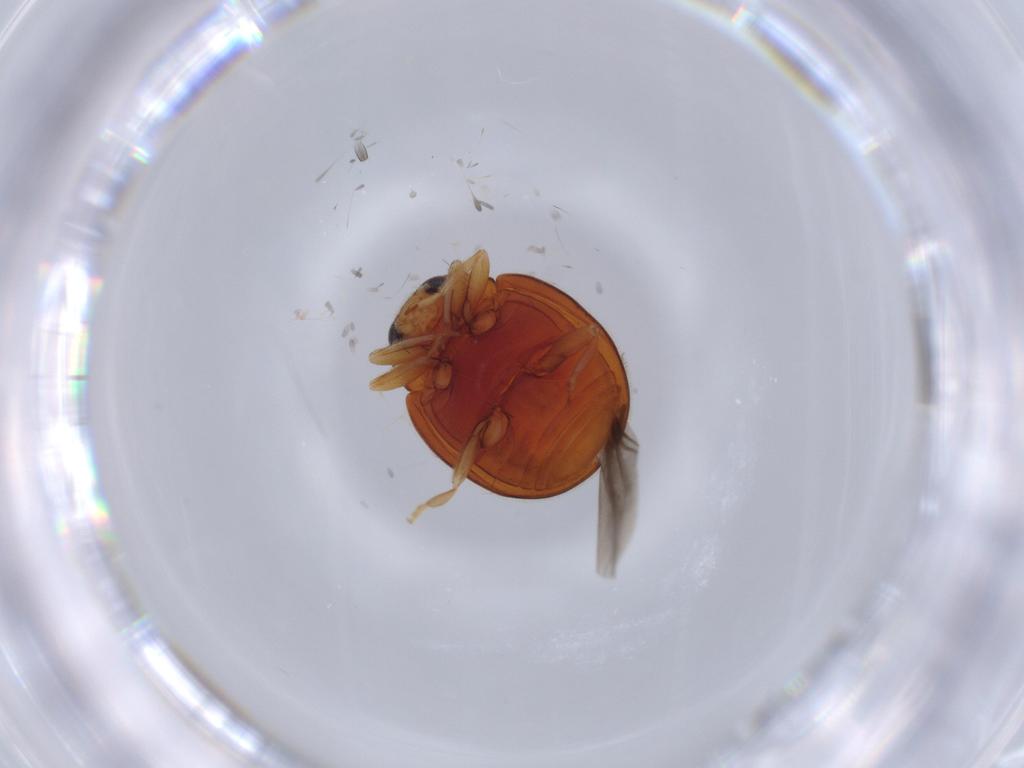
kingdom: Animalia
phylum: Arthropoda
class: Insecta
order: Coleoptera
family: Coccinellidae
